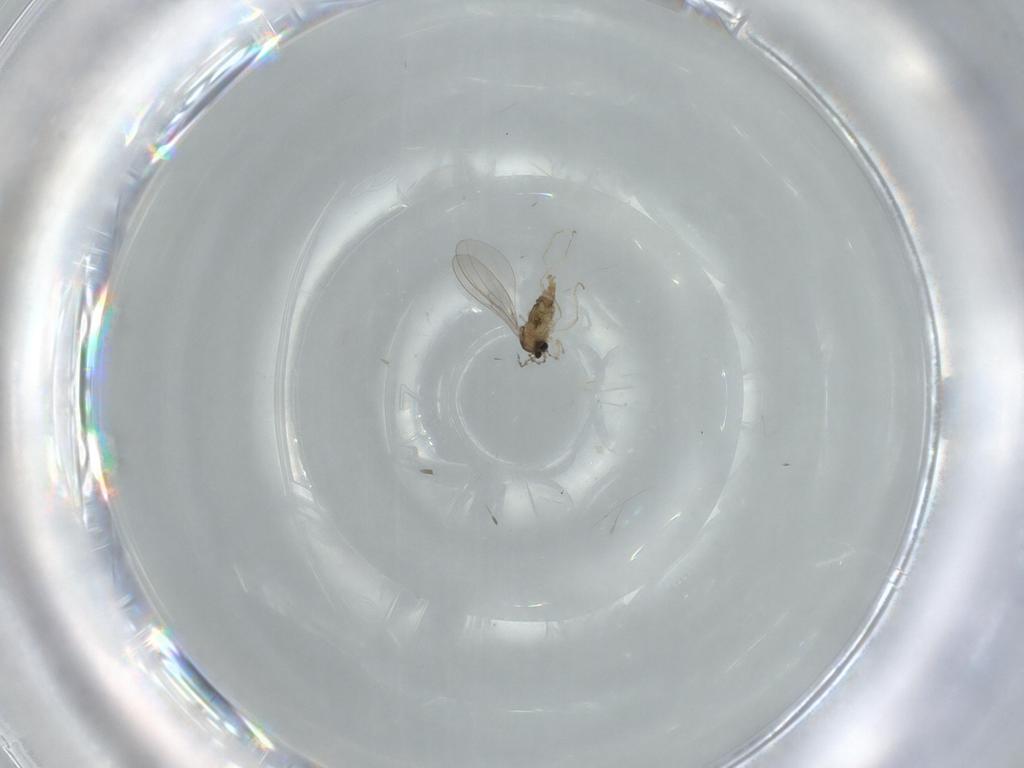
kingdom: Animalia
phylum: Arthropoda
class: Insecta
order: Diptera
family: Cecidomyiidae
